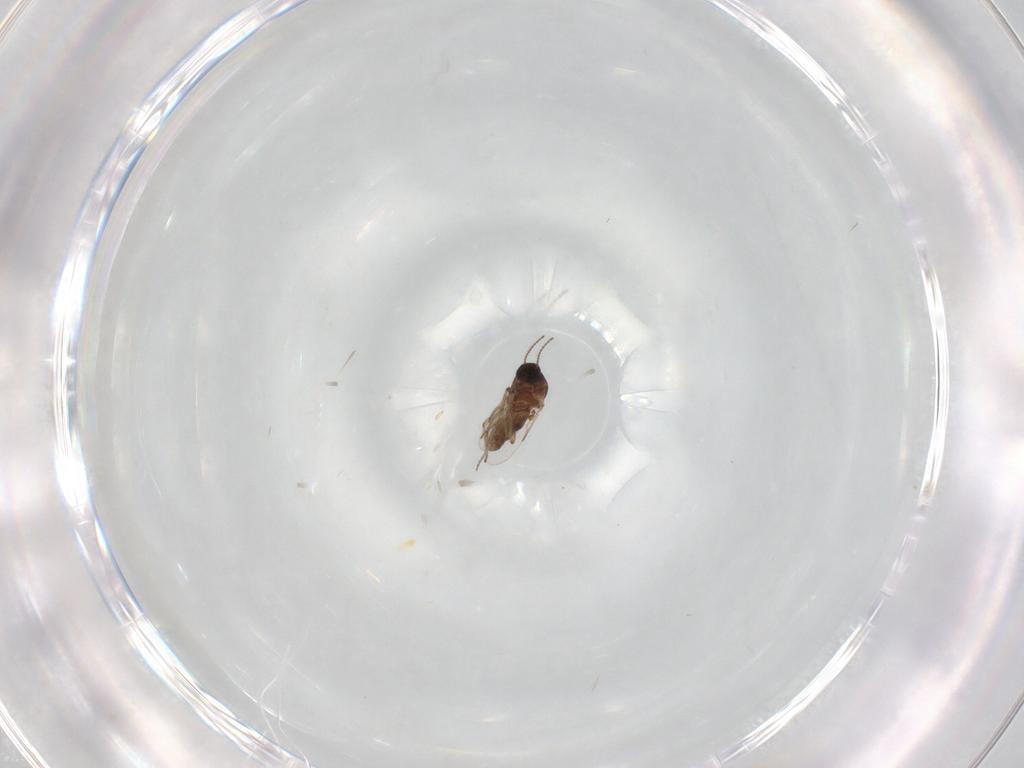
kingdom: Animalia
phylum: Arthropoda
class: Insecta
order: Diptera
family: Ceratopogonidae
